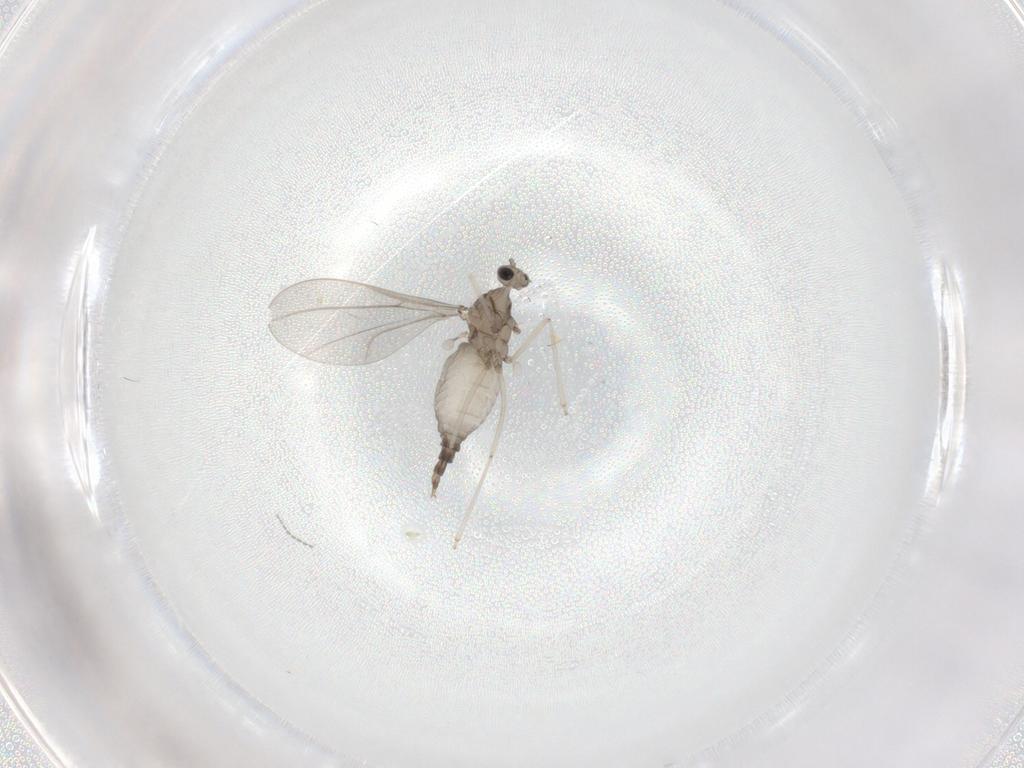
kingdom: Animalia
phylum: Arthropoda
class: Insecta
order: Diptera
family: Cecidomyiidae
